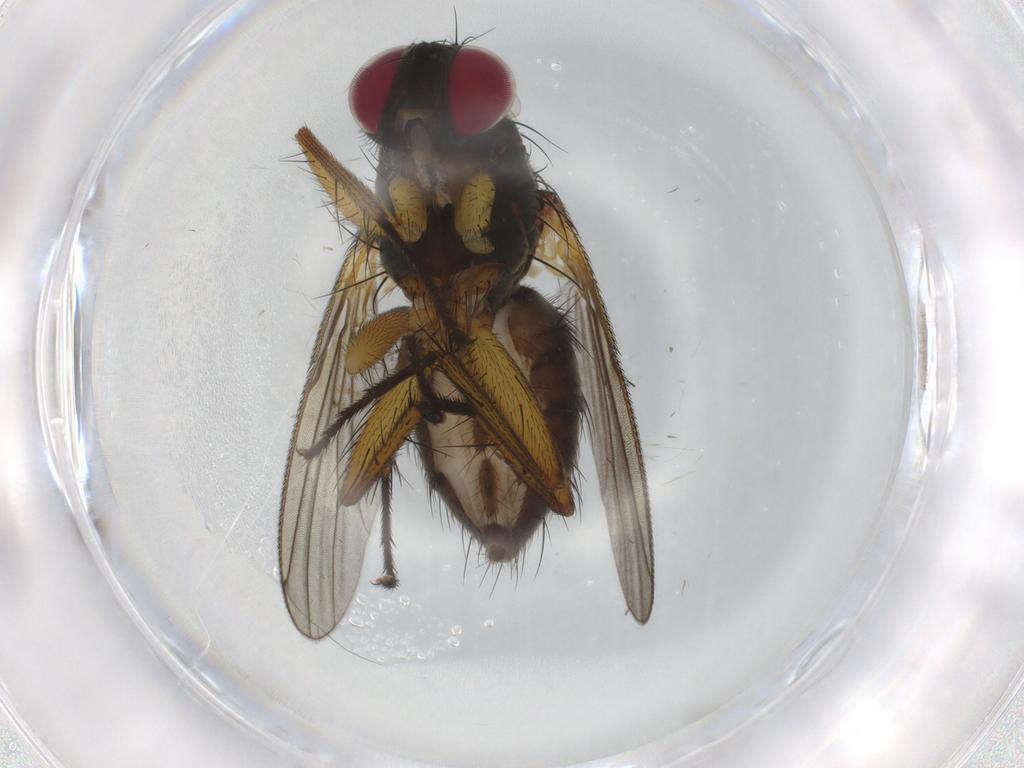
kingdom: Animalia
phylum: Arthropoda
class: Insecta
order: Diptera
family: Muscidae
